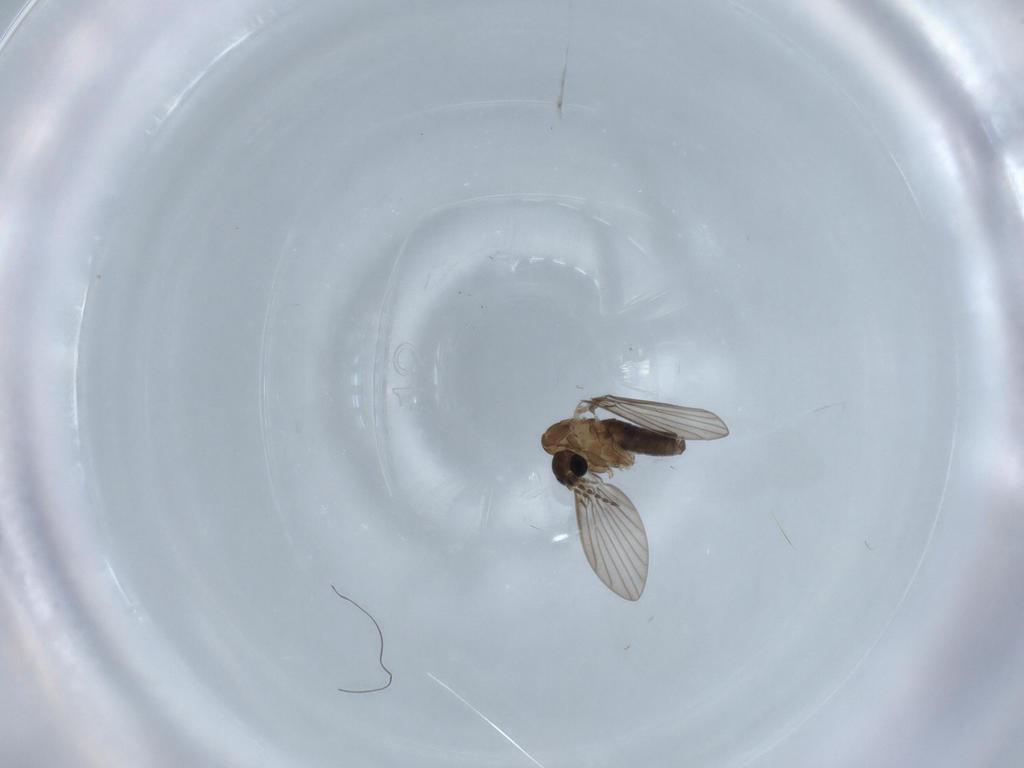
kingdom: Animalia
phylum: Arthropoda
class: Insecta
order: Diptera
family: Psychodidae
